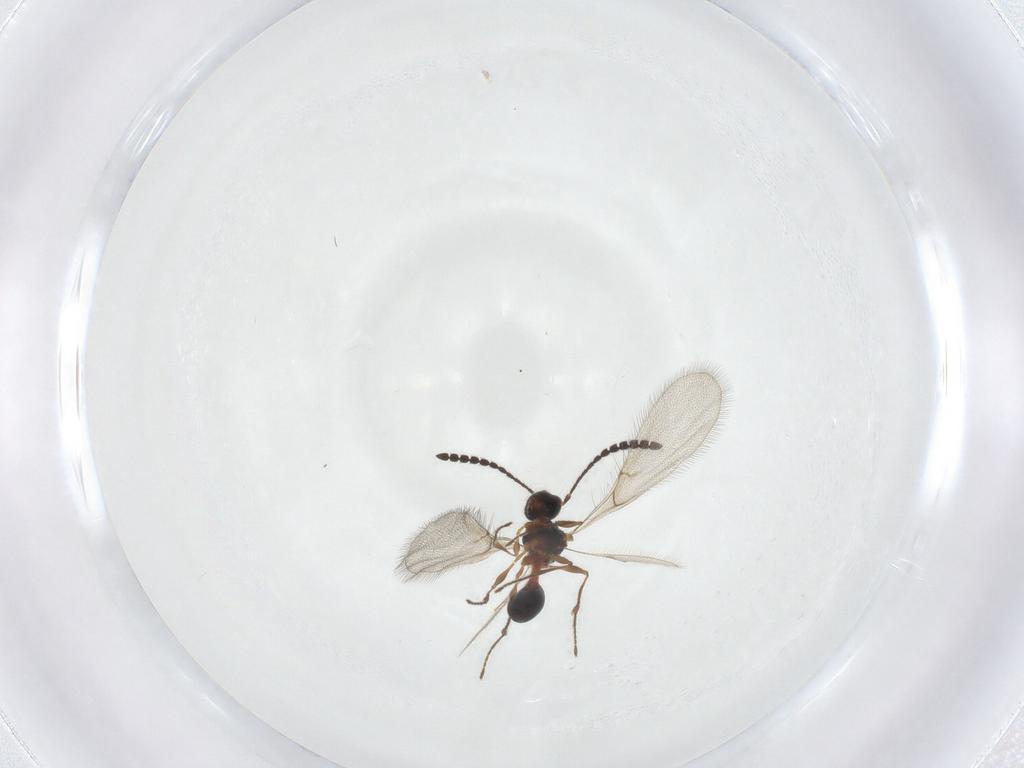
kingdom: Animalia
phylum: Arthropoda
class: Insecta
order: Hymenoptera
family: Diapriidae
